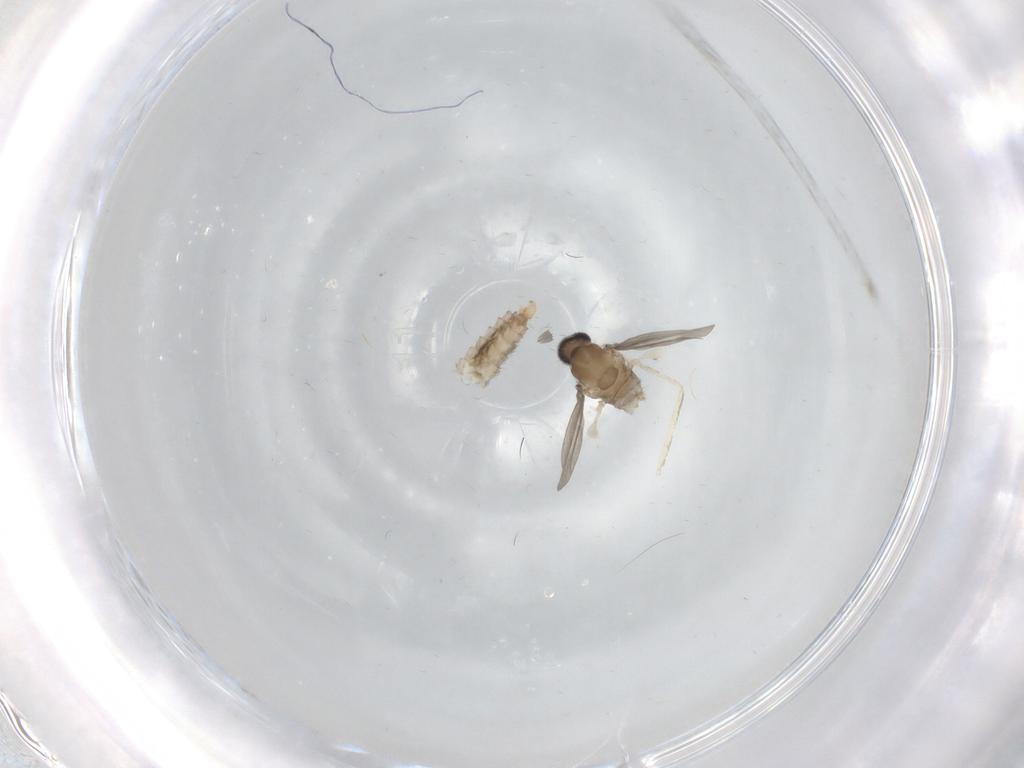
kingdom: Animalia
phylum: Arthropoda
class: Insecta
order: Diptera
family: Cecidomyiidae
